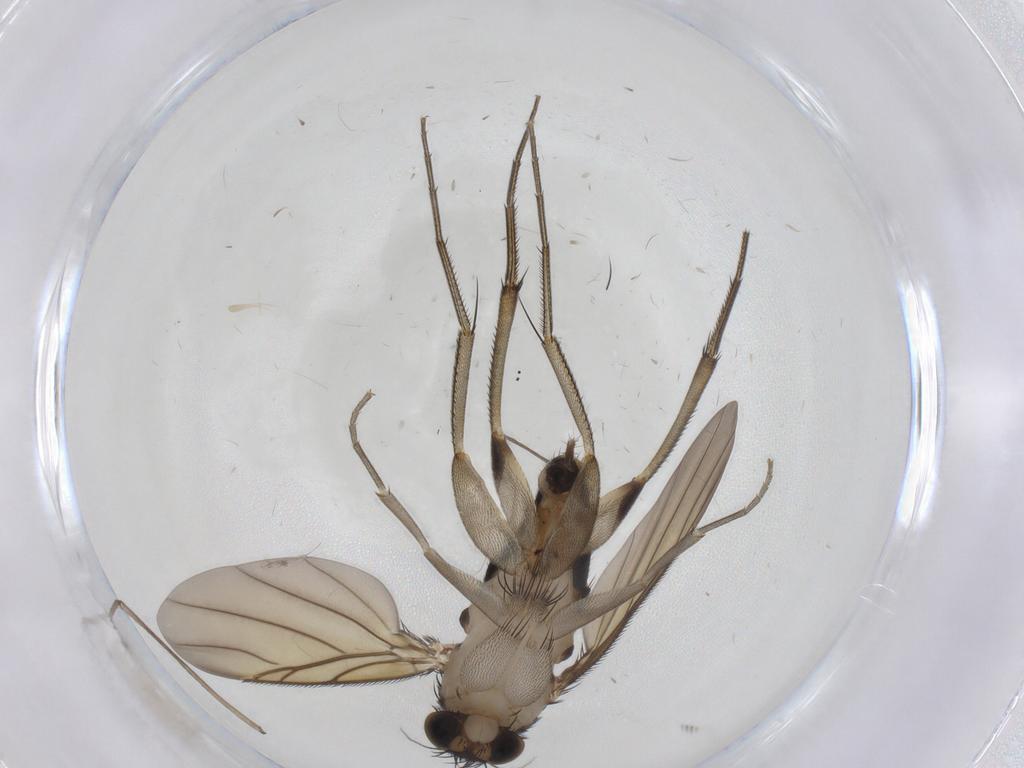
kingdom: Animalia
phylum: Arthropoda
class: Insecta
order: Diptera
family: Phoridae
